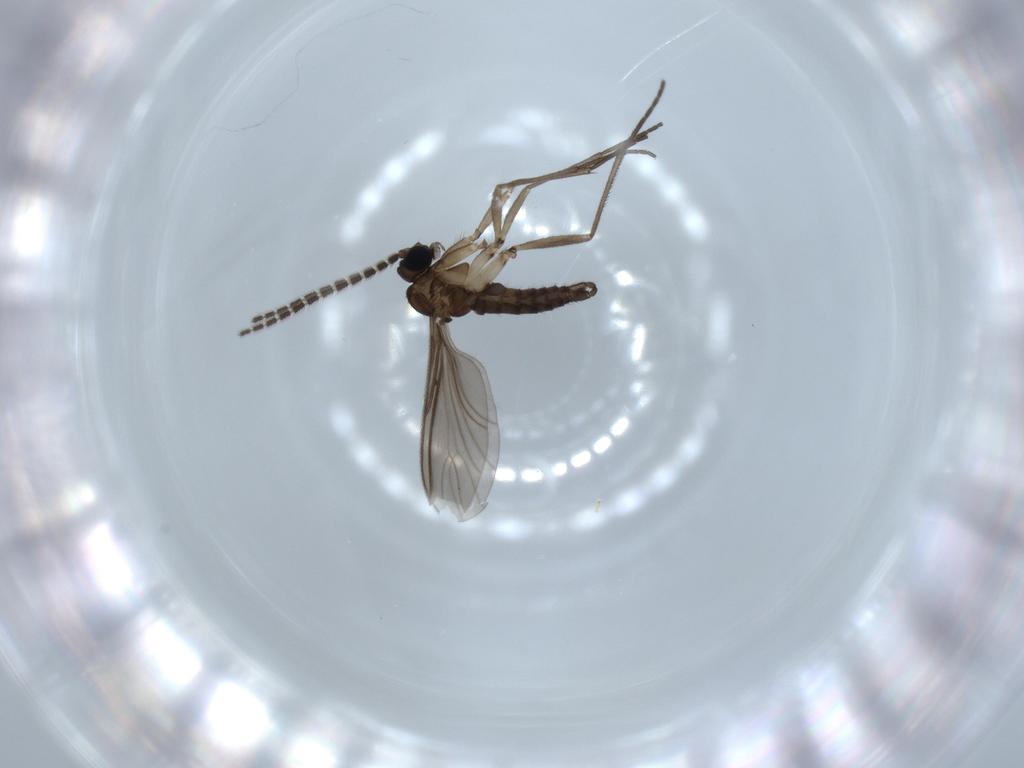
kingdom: Animalia
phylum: Arthropoda
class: Insecta
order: Diptera
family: Sciaridae
